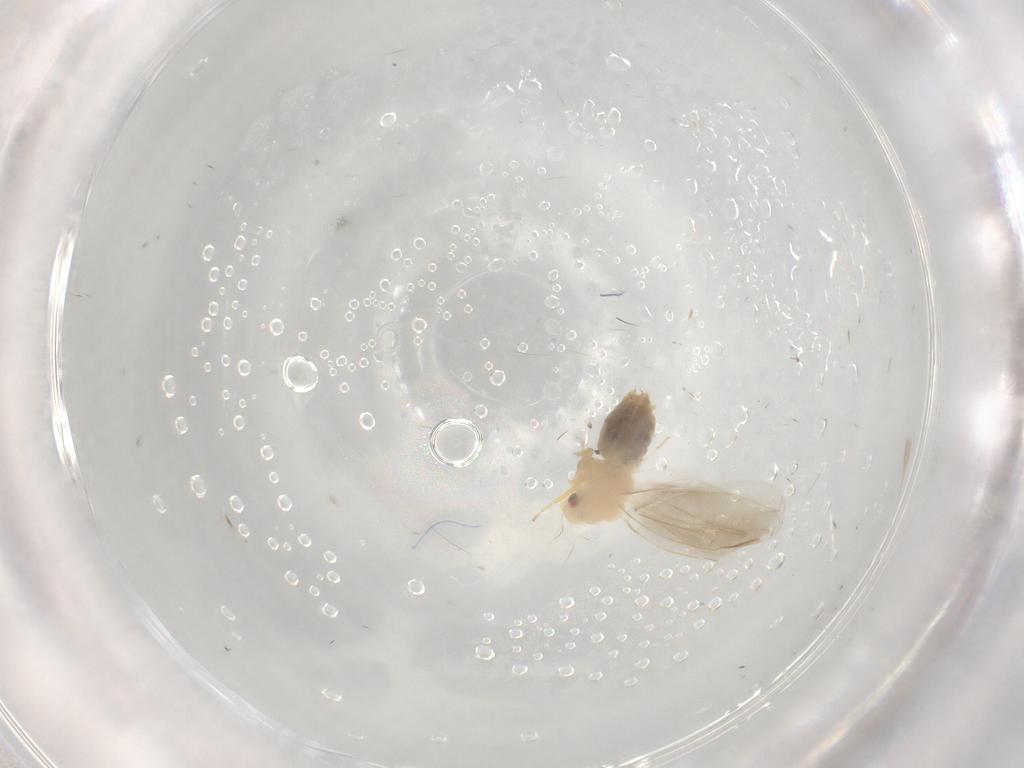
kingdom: Animalia
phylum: Arthropoda
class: Insecta
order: Hemiptera
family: Aleyrodidae
